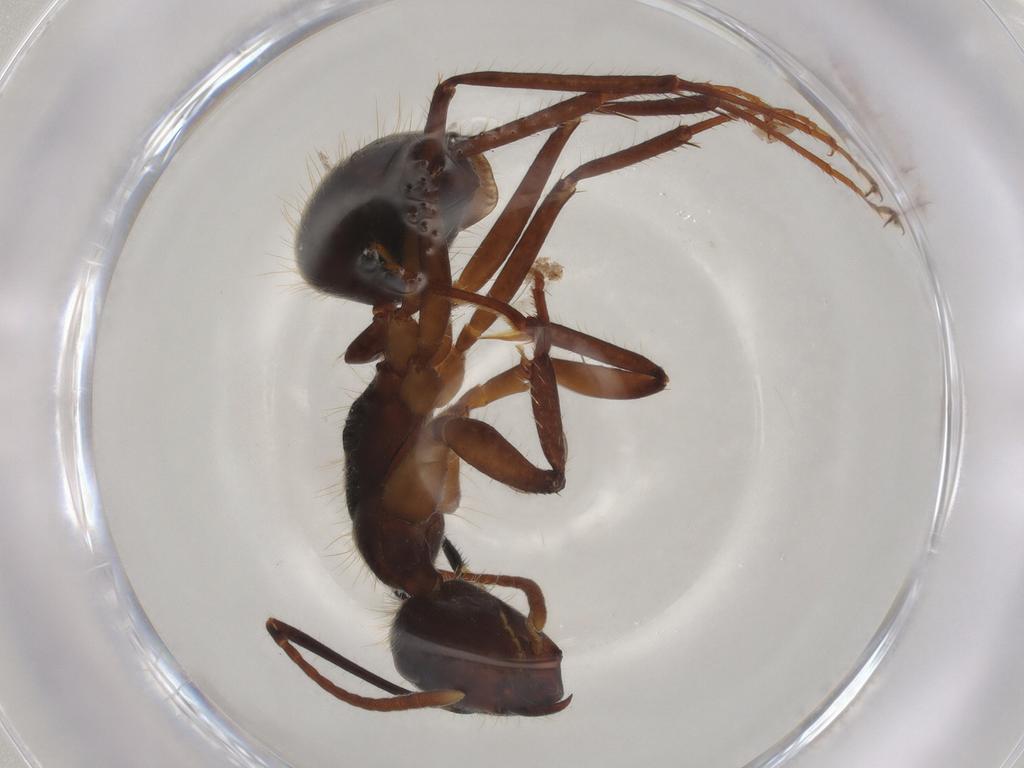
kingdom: Animalia
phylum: Arthropoda
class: Insecta
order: Hymenoptera
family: Formicidae
